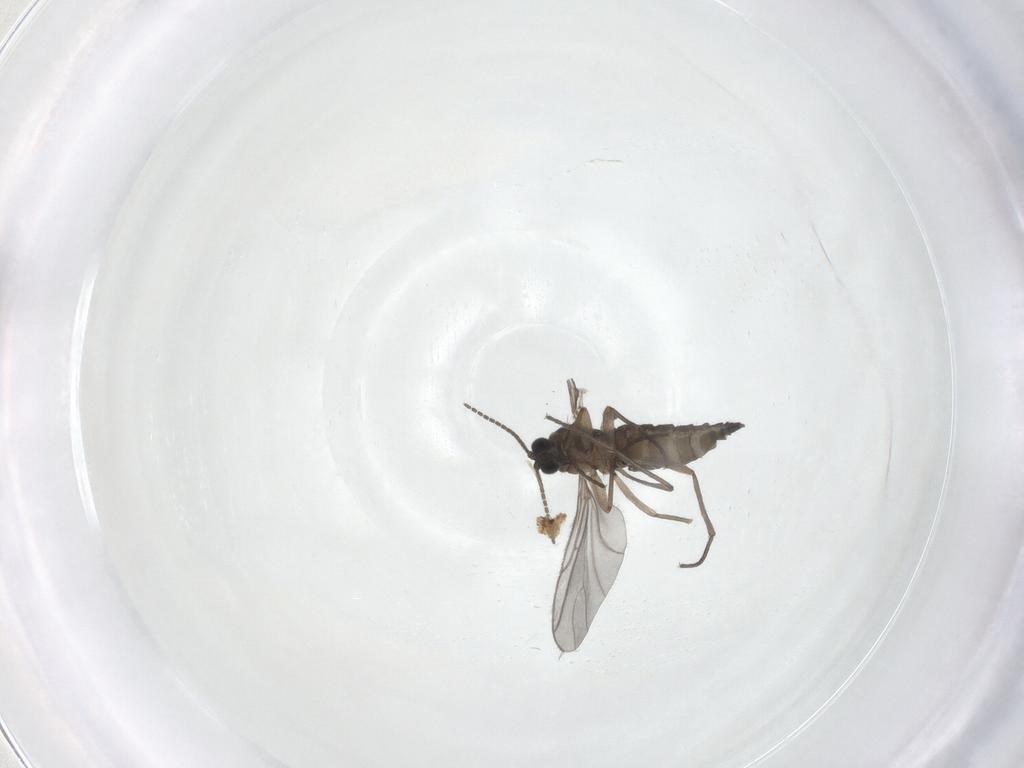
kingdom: Animalia
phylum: Arthropoda
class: Insecta
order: Diptera
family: Sciaridae
